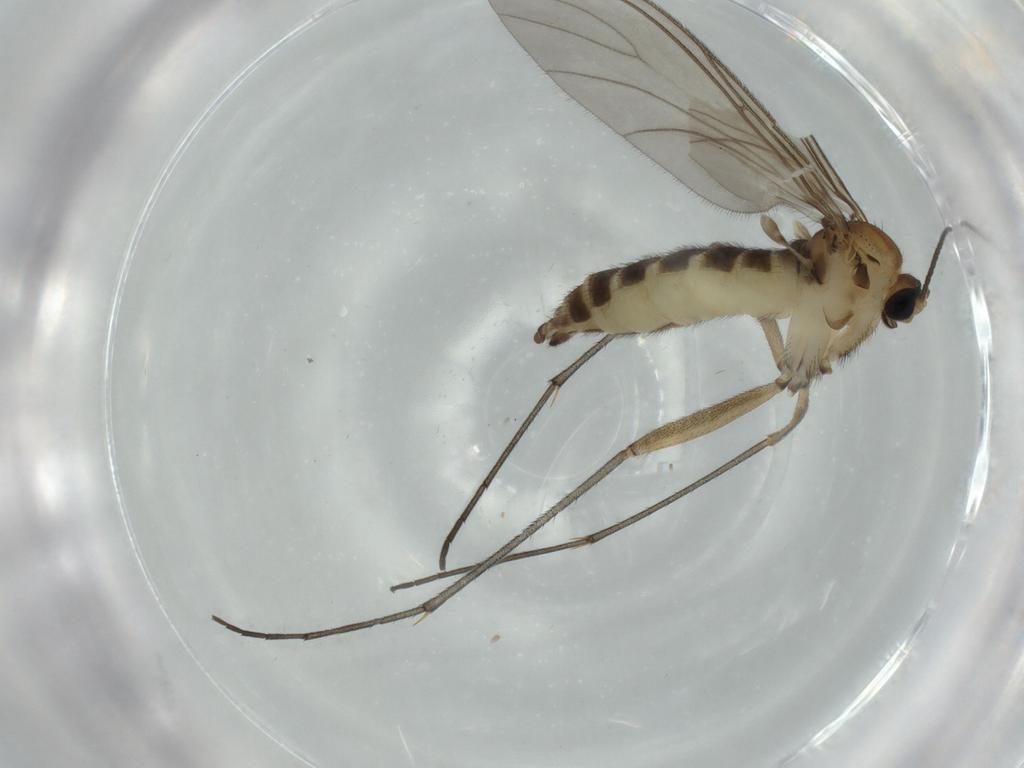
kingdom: Animalia
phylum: Arthropoda
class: Insecta
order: Diptera
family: Sciaridae
